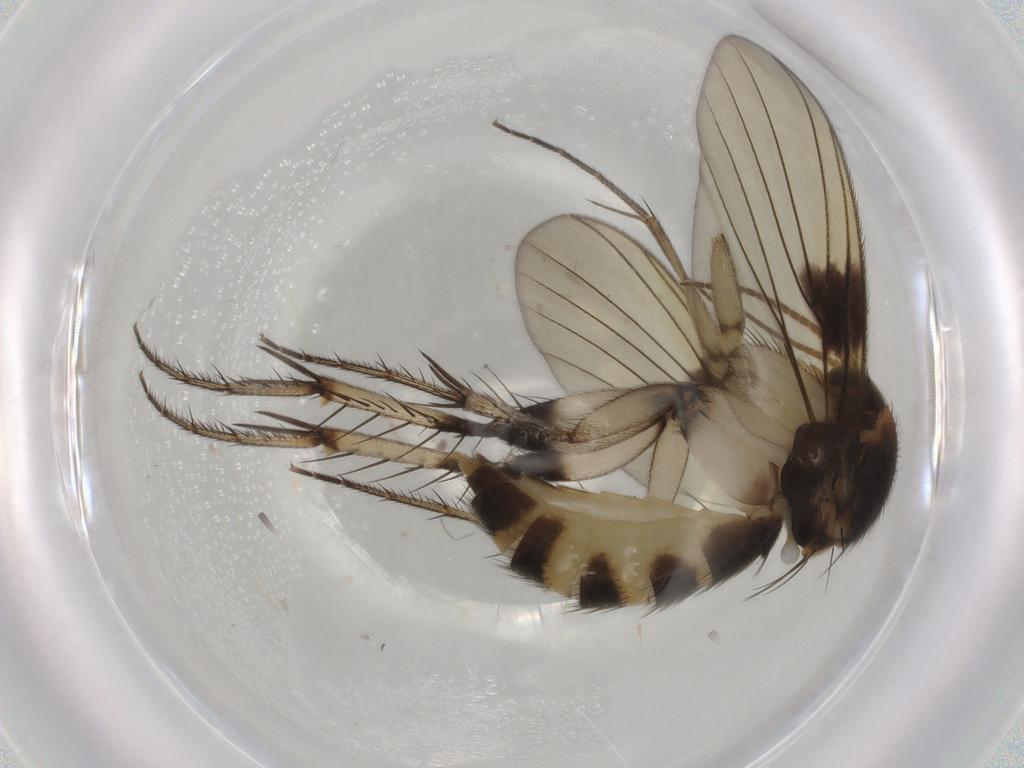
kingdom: Animalia
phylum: Arthropoda
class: Insecta
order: Diptera
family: Mycetophilidae
